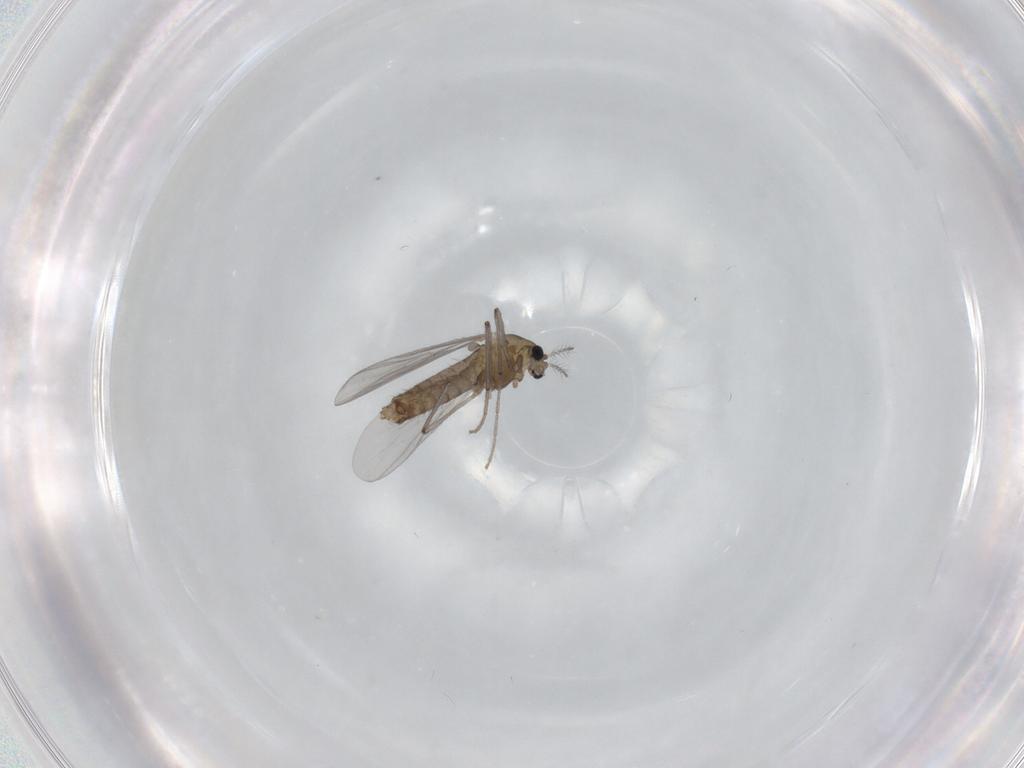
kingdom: Animalia
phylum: Arthropoda
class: Insecta
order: Diptera
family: Chironomidae
